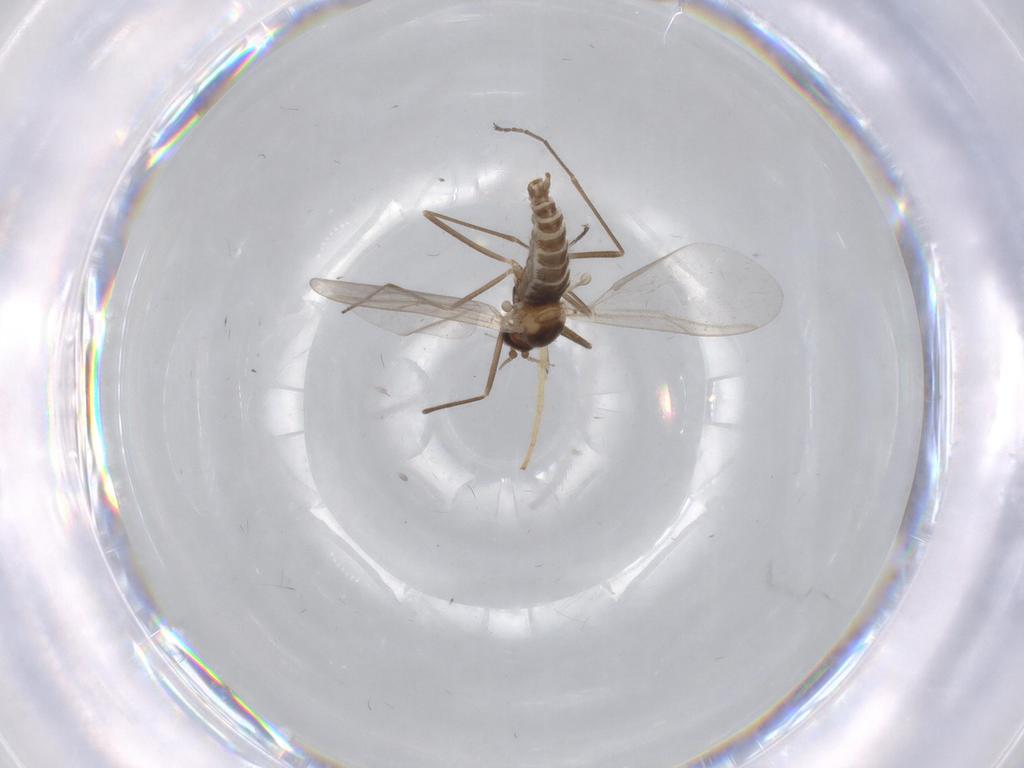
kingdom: Animalia
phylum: Arthropoda
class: Insecta
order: Diptera
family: Cecidomyiidae
